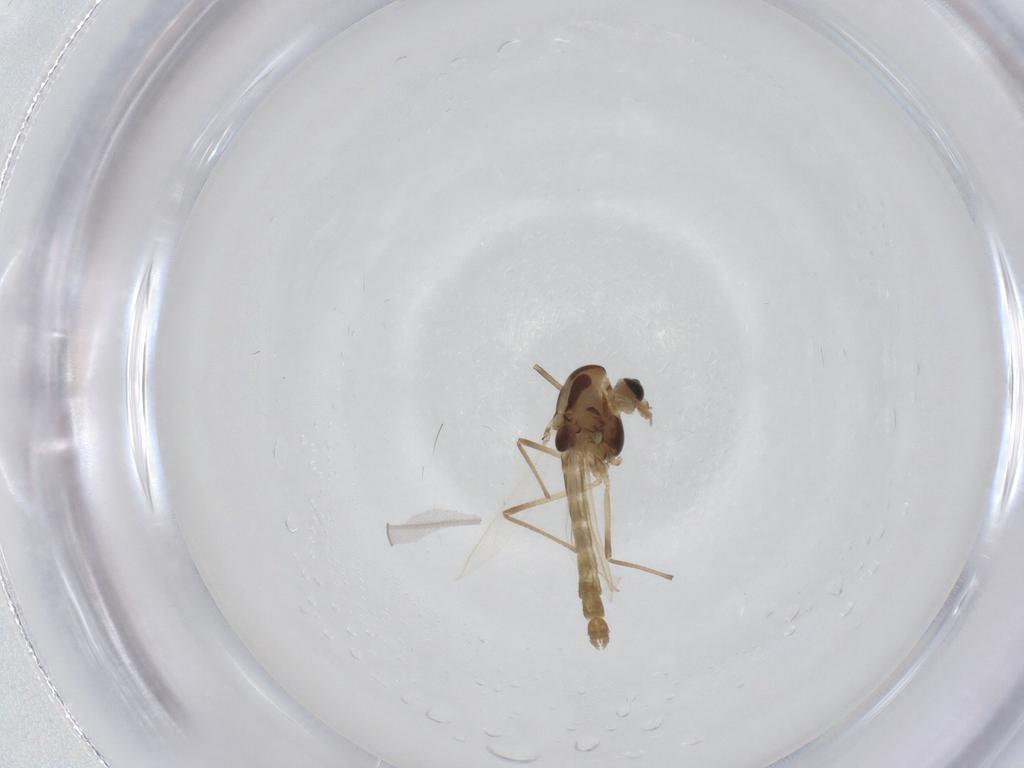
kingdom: Animalia
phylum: Arthropoda
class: Insecta
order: Diptera
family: Chironomidae
